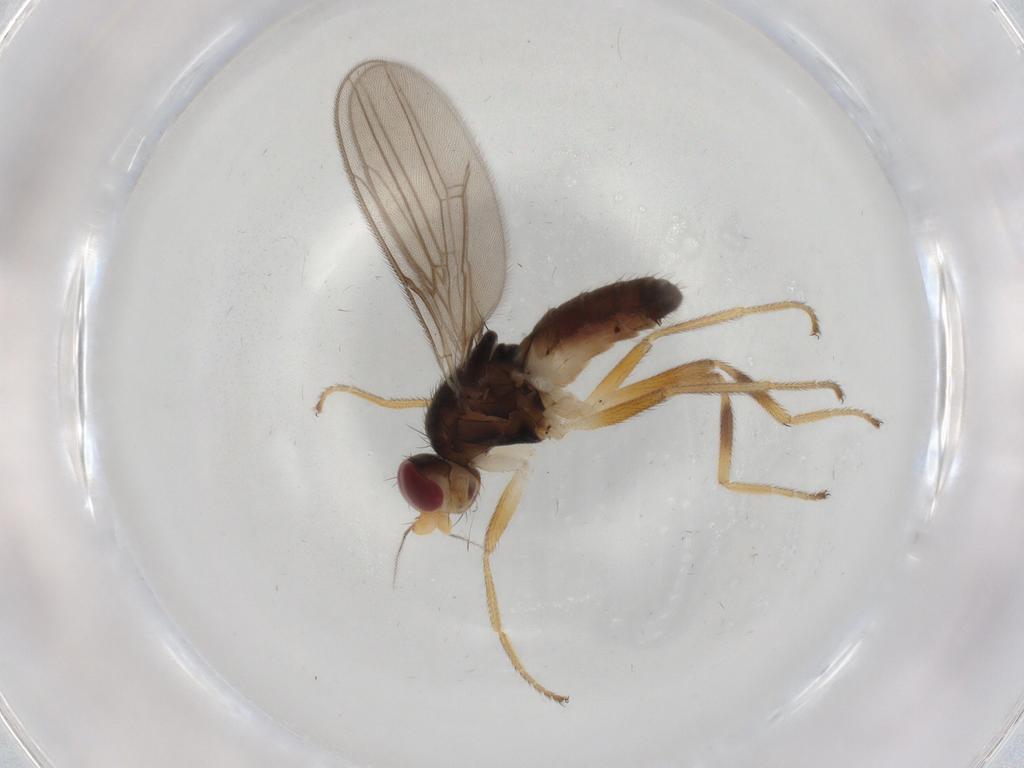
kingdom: Animalia
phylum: Arthropoda
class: Insecta
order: Diptera
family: Chloropidae
